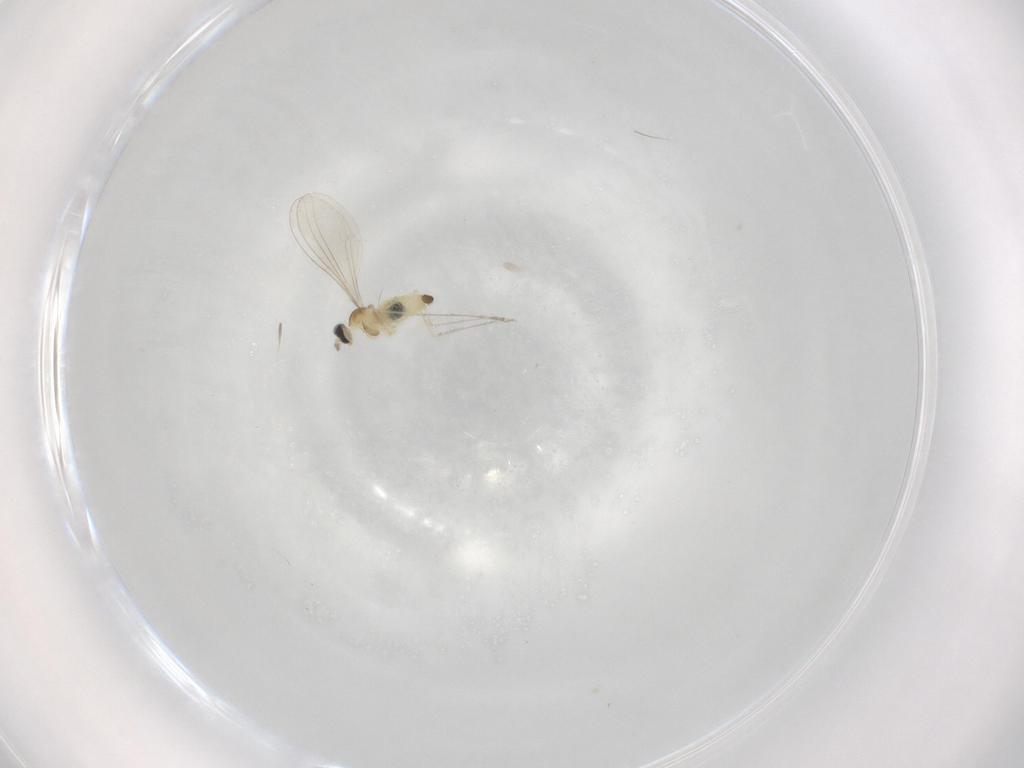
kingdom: Animalia
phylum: Arthropoda
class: Insecta
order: Diptera
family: Cecidomyiidae
